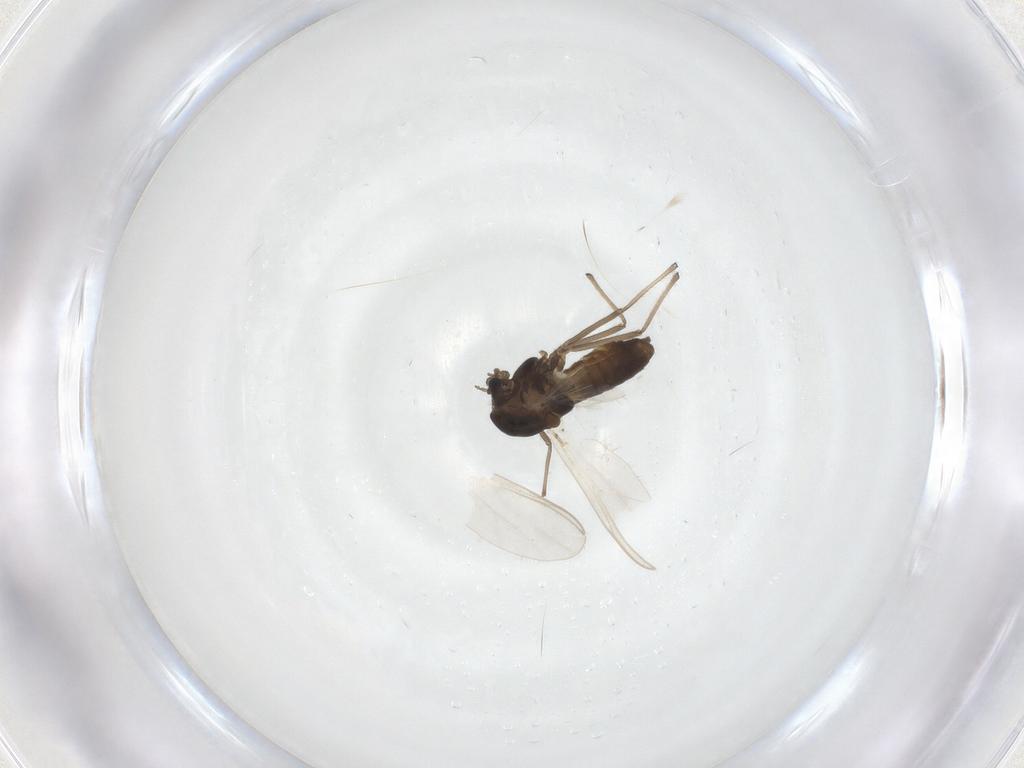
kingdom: Animalia
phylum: Arthropoda
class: Insecta
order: Diptera
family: Chironomidae
